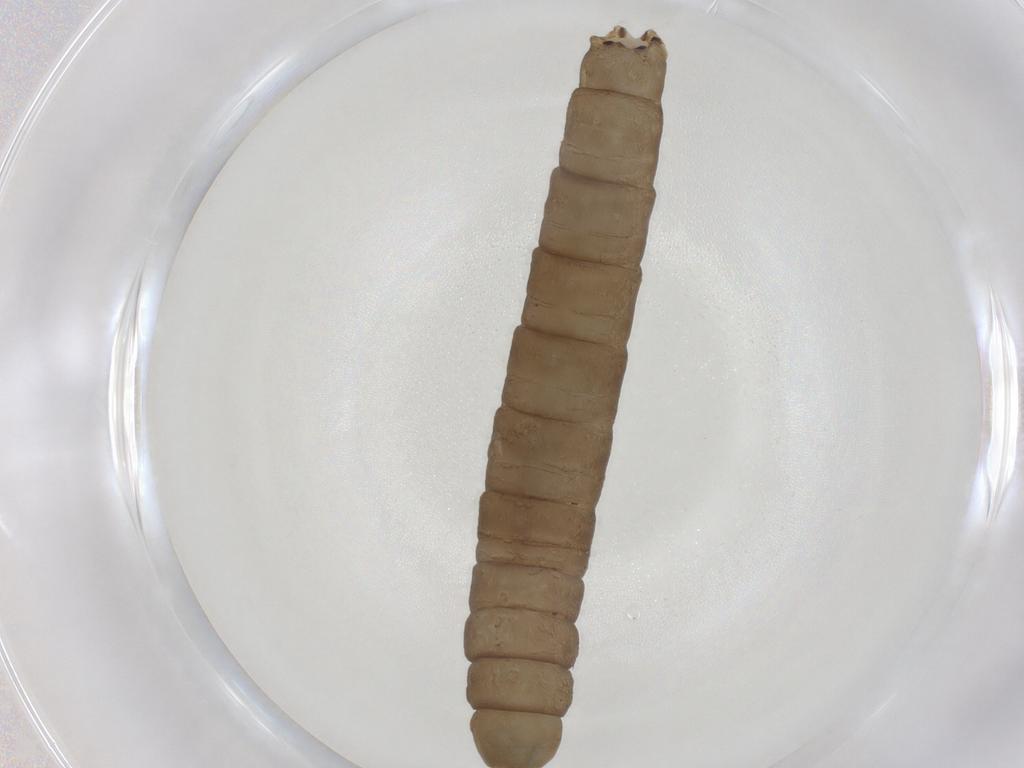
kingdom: Animalia
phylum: Arthropoda
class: Insecta
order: Diptera
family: Limoniidae
